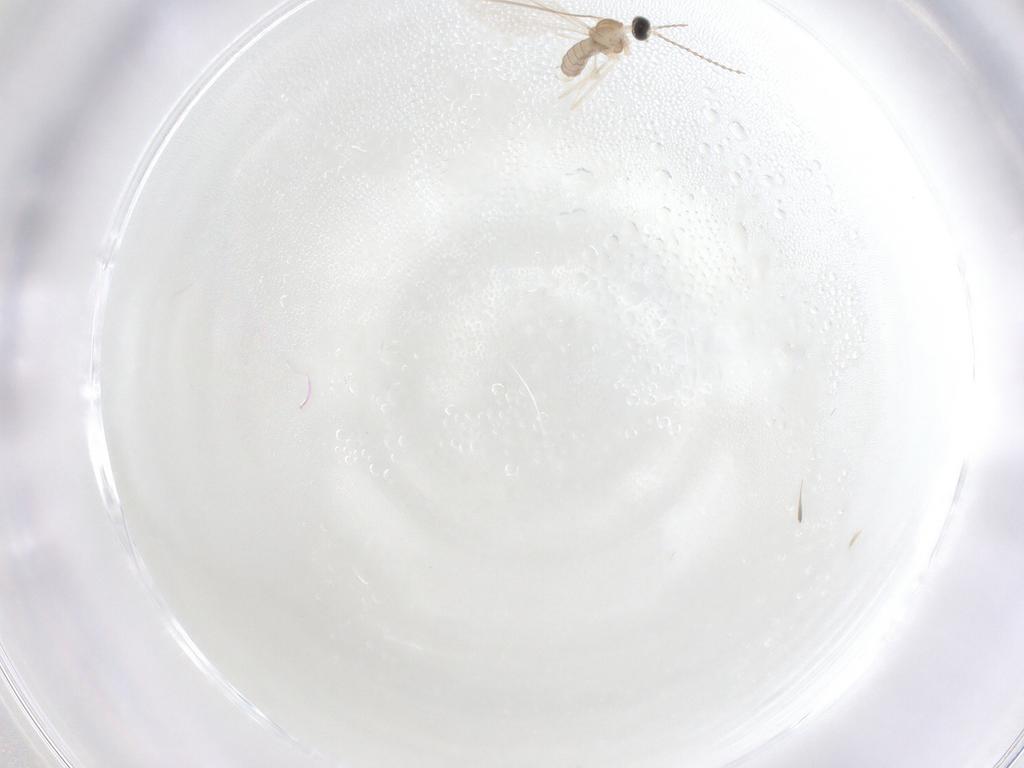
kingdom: Animalia
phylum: Arthropoda
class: Insecta
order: Diptera
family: Cecidomyiidae
